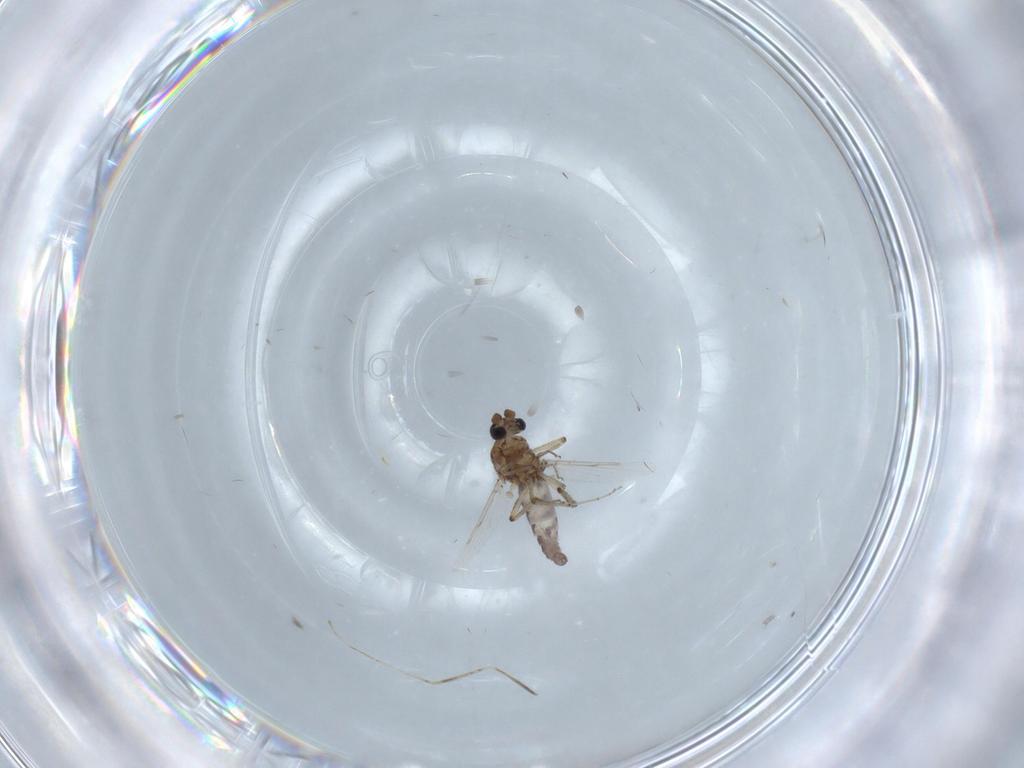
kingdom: Animalia
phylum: Arthropoda
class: Insecta
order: Diptera
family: Ceratopogonidae
